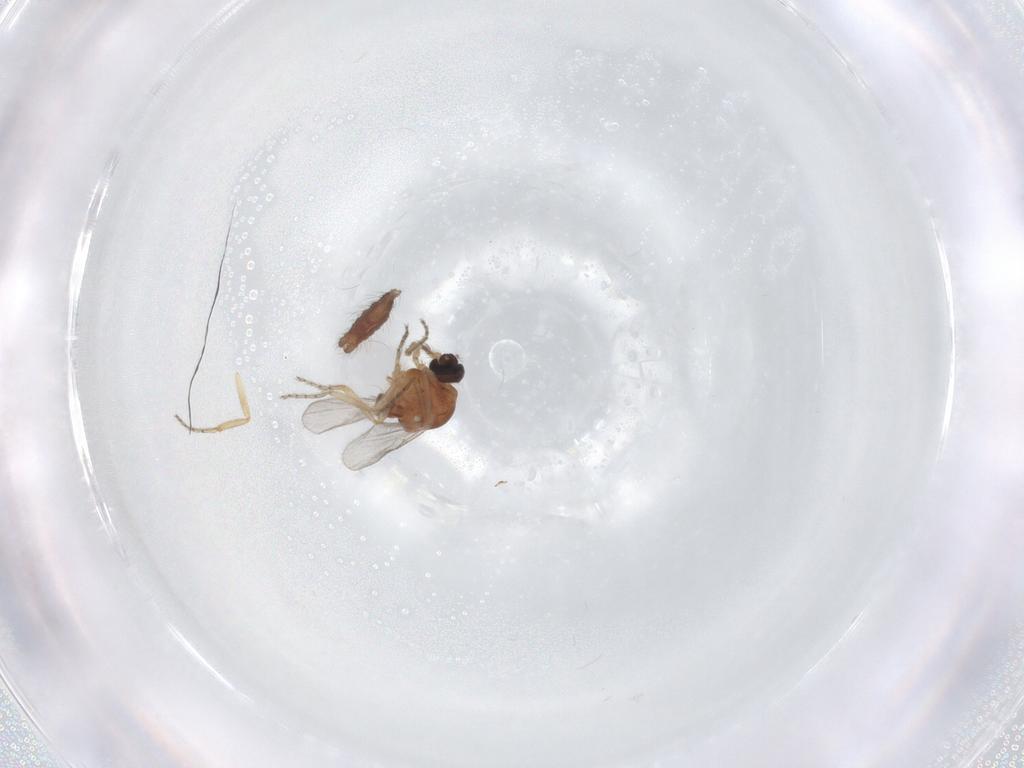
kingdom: Animalia
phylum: Arthropoda
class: Insecta
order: Diptera
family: Ceratopogonidae
